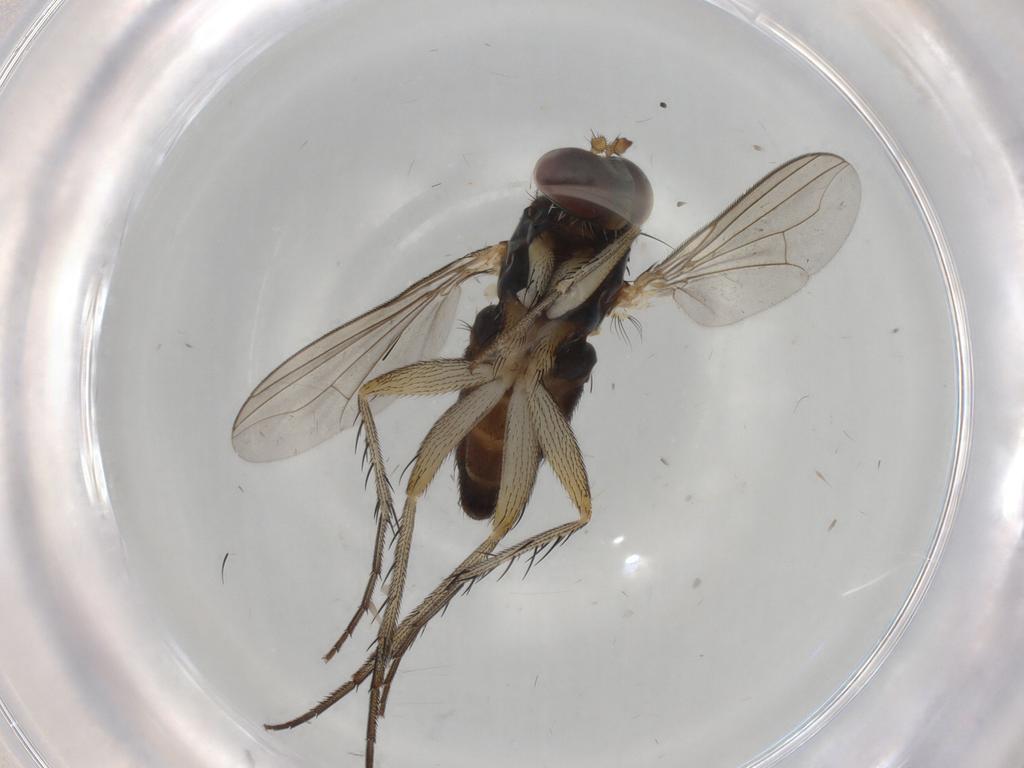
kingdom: Animalia
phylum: Arthropoda
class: Insecta
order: Diptera
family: Dolichopodidae
